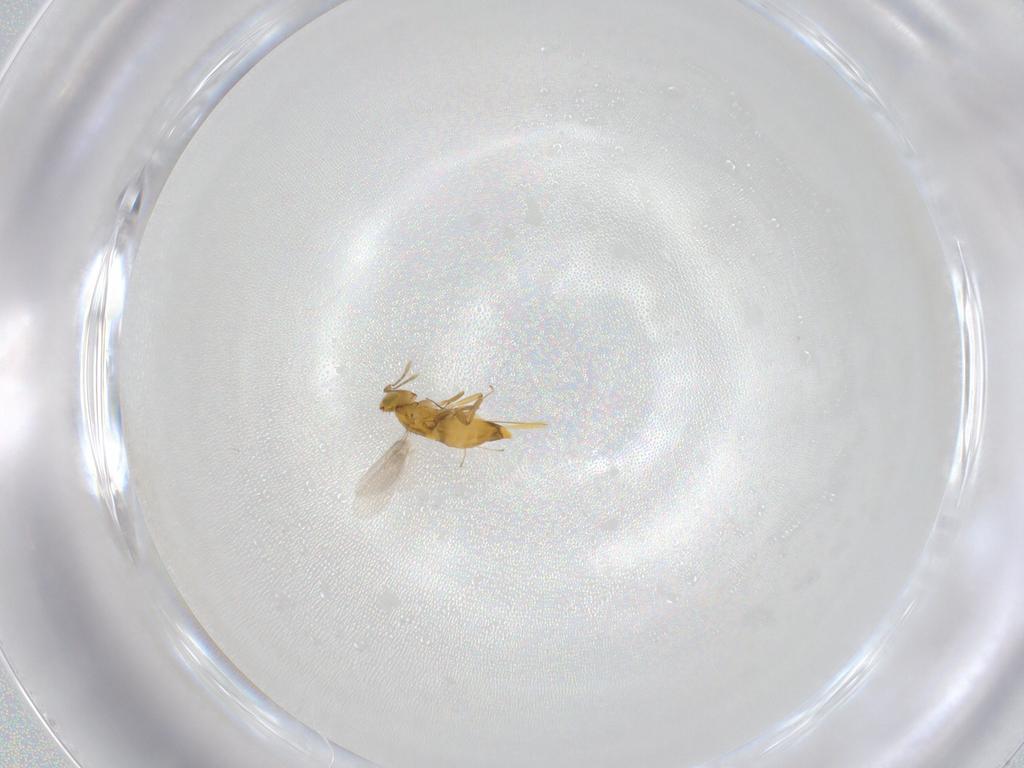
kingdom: Animalia
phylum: Arthropoda
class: Insecta
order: Hymenoptera
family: Aphelinidae
